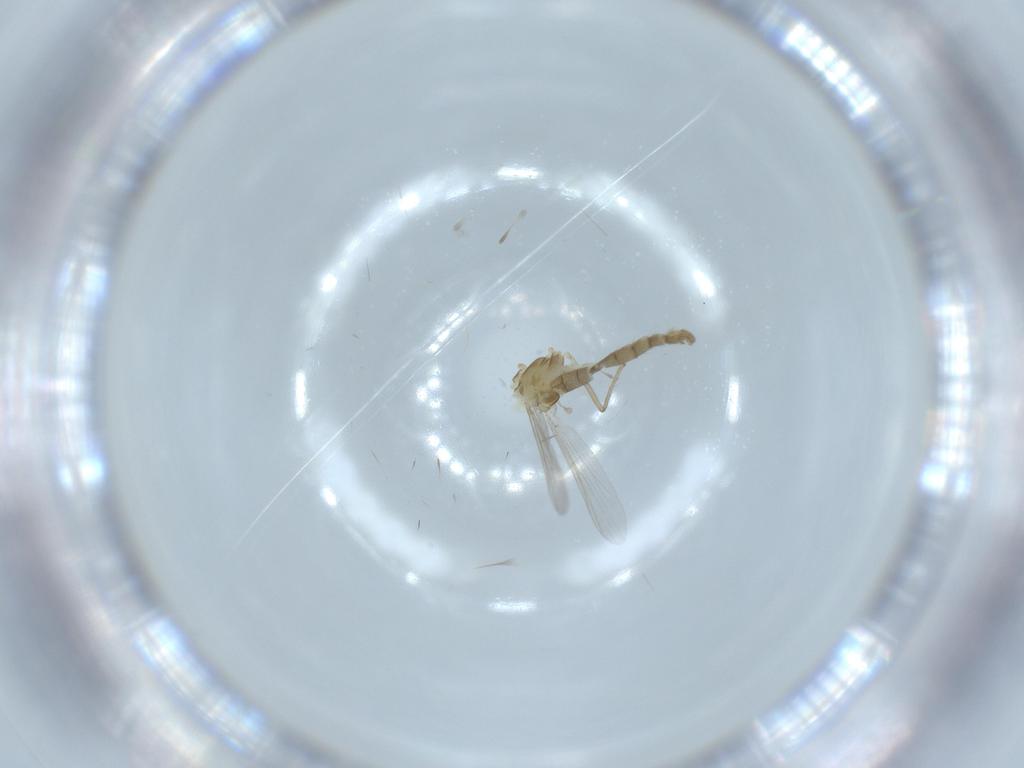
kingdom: Animalia
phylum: Arthropoda
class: Insecta
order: Diptera
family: Chironomidae
